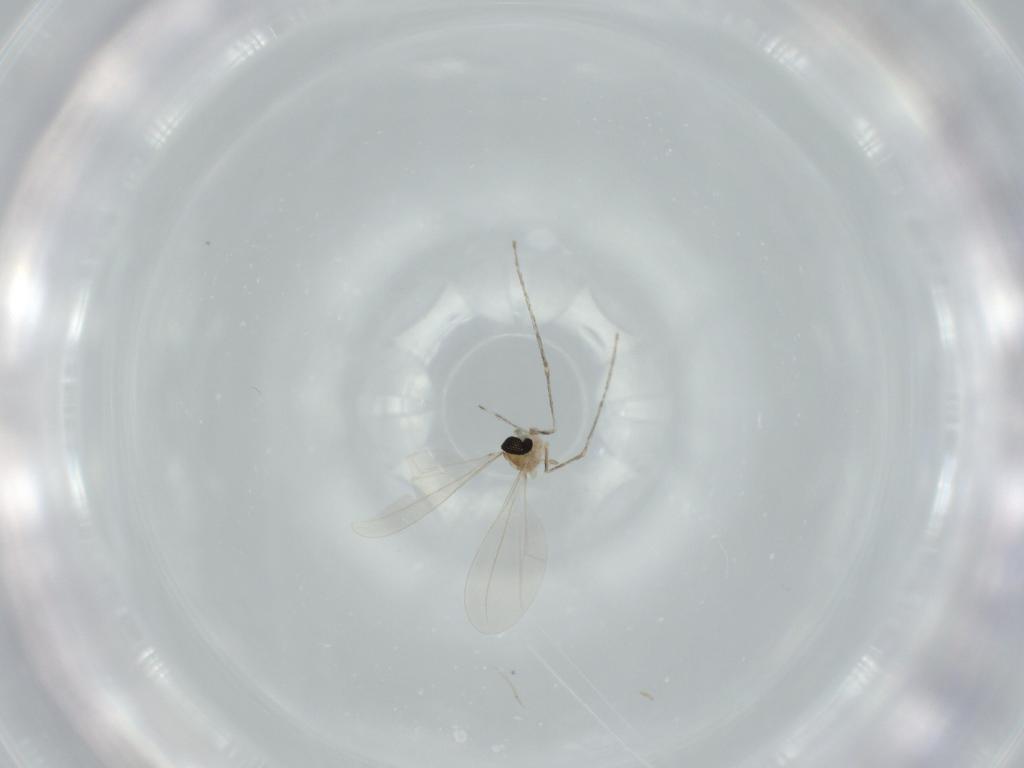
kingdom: Animalia
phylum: Arthropoda
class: Insecta
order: Diptera
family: Cecidomyiidae
